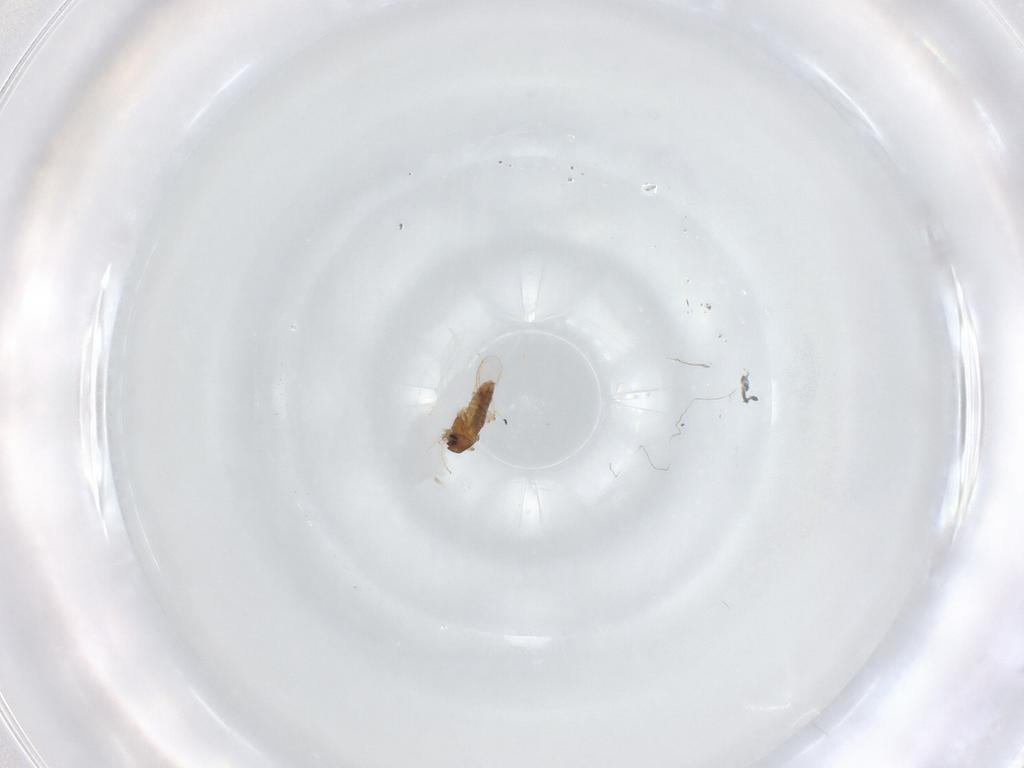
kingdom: Animalia
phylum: Arthropoda
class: Insecta
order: Diptera
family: Chironomidae
